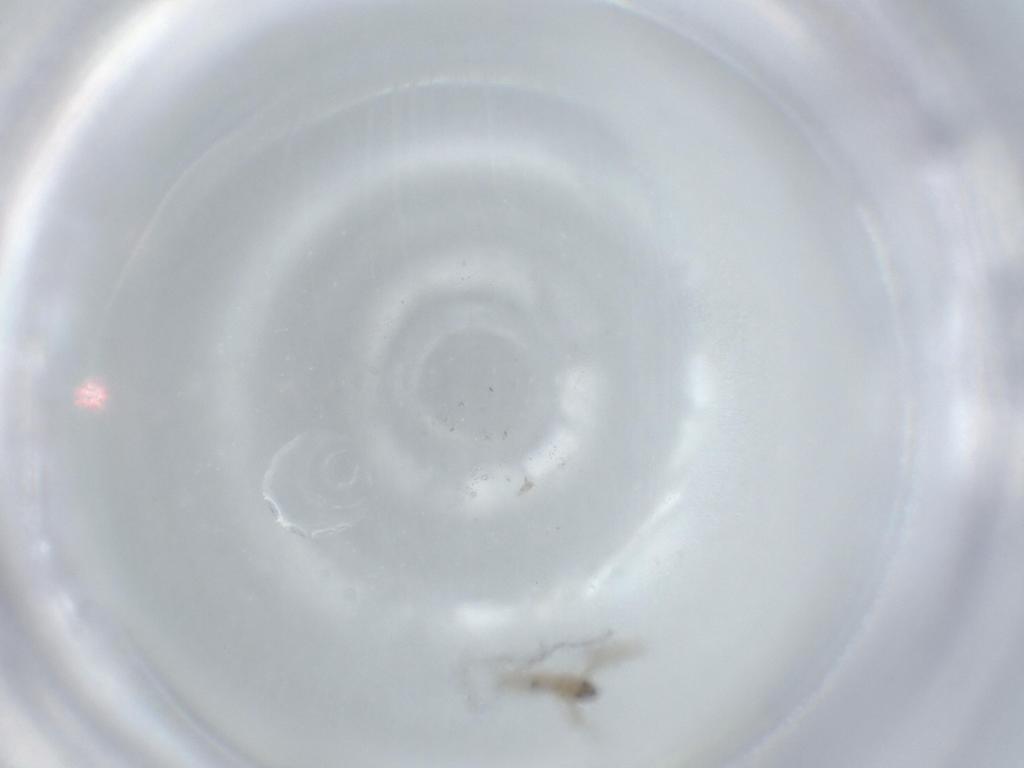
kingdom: Animalia
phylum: Arthropoda
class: Insecta
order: Diptera
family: Cecidomyiidae
